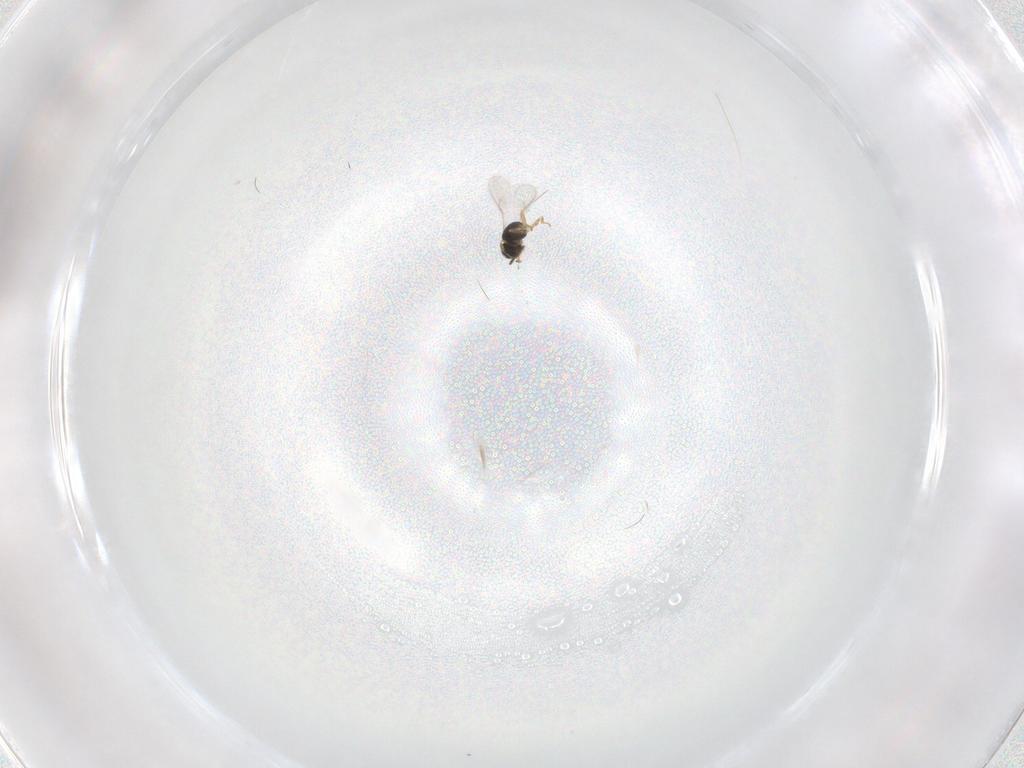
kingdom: Animalia
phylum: Arthropoda
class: Insecta
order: Hymenoptera
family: Scelionidae
